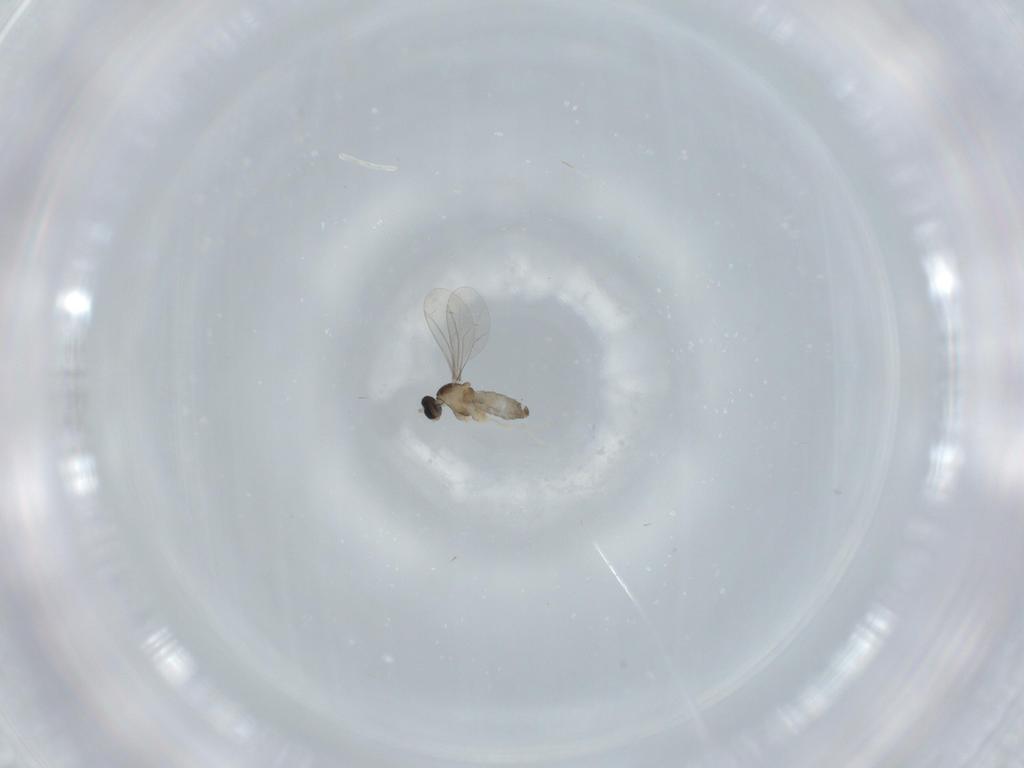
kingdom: Animalia
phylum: Arthropoda
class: Insecta
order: Diptera
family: Cecidomyiidae
